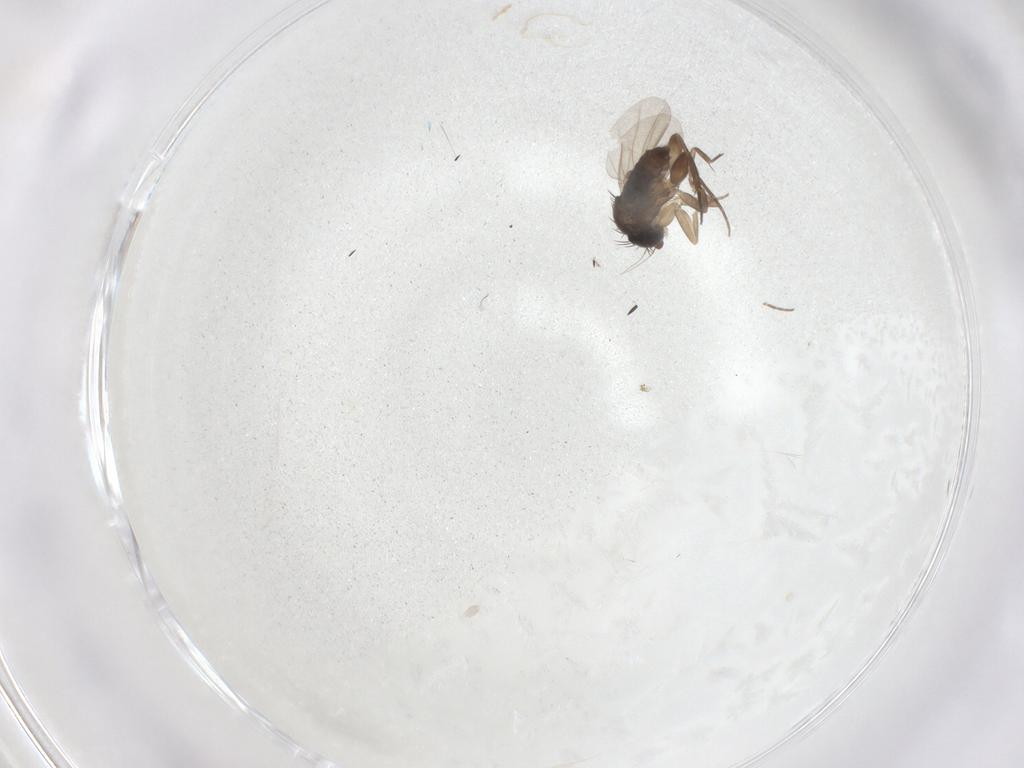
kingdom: Animalia
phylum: Arthropoda
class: Insecta
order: Diptera
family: Phoridae
